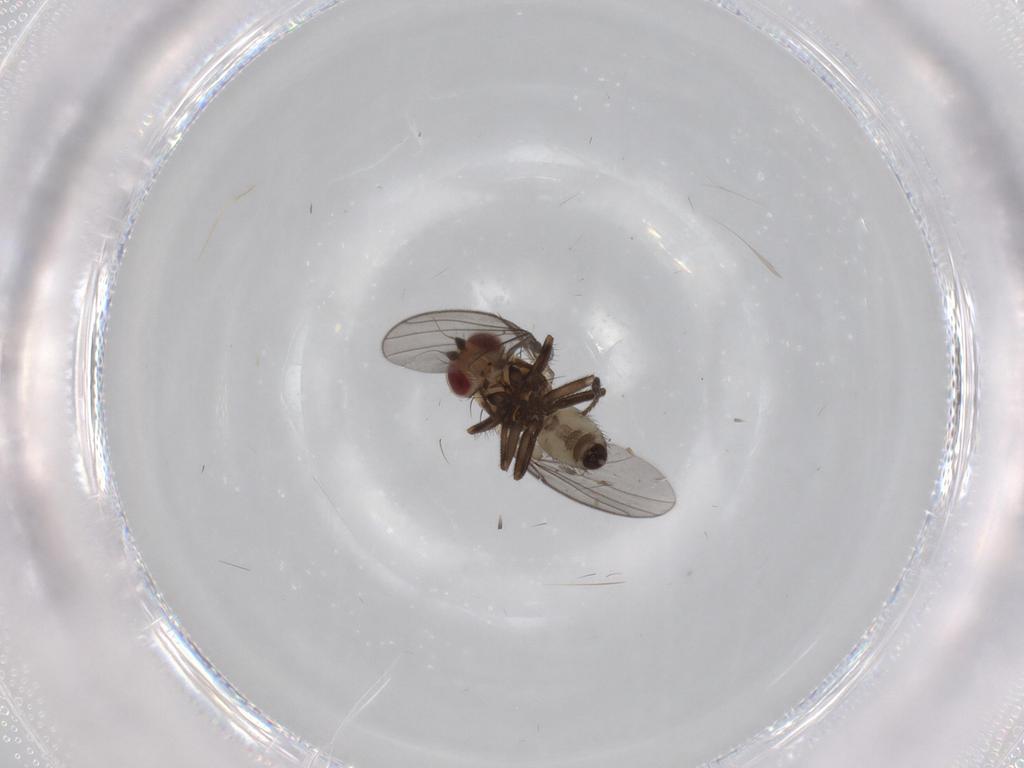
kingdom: Animalia
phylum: Arthropoda
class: Insecta
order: Diptera
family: Agromyzidae
